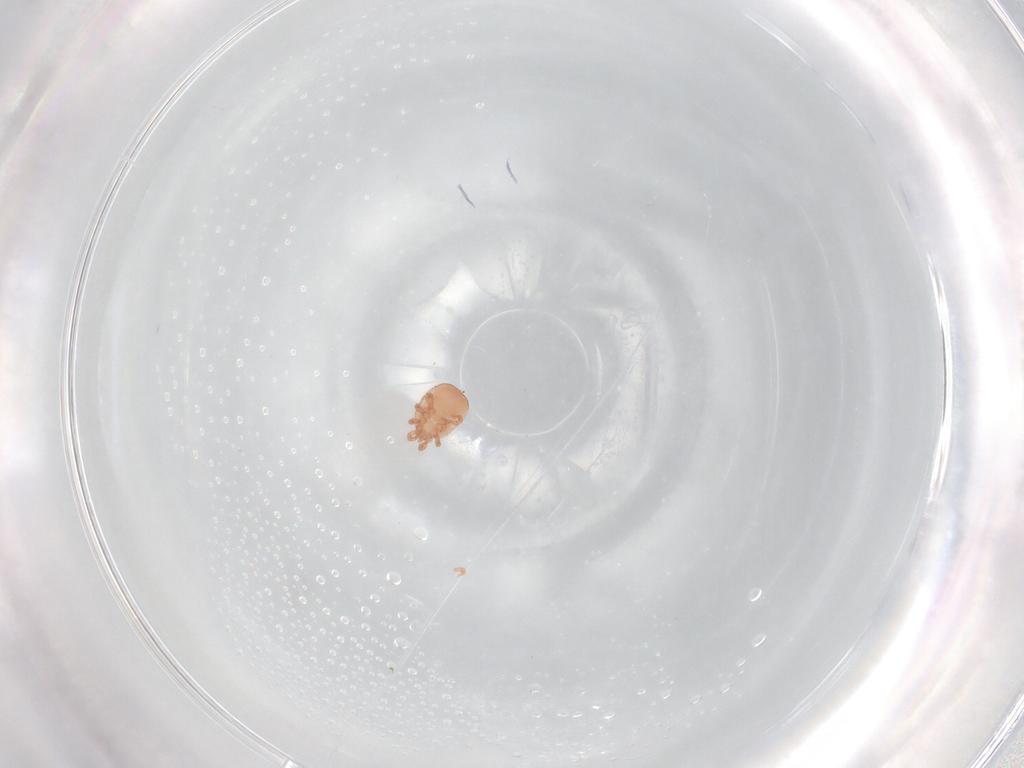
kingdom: Animalia
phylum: Arthropoda
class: Arachnida
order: Mesostigmata
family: Zerconidae
